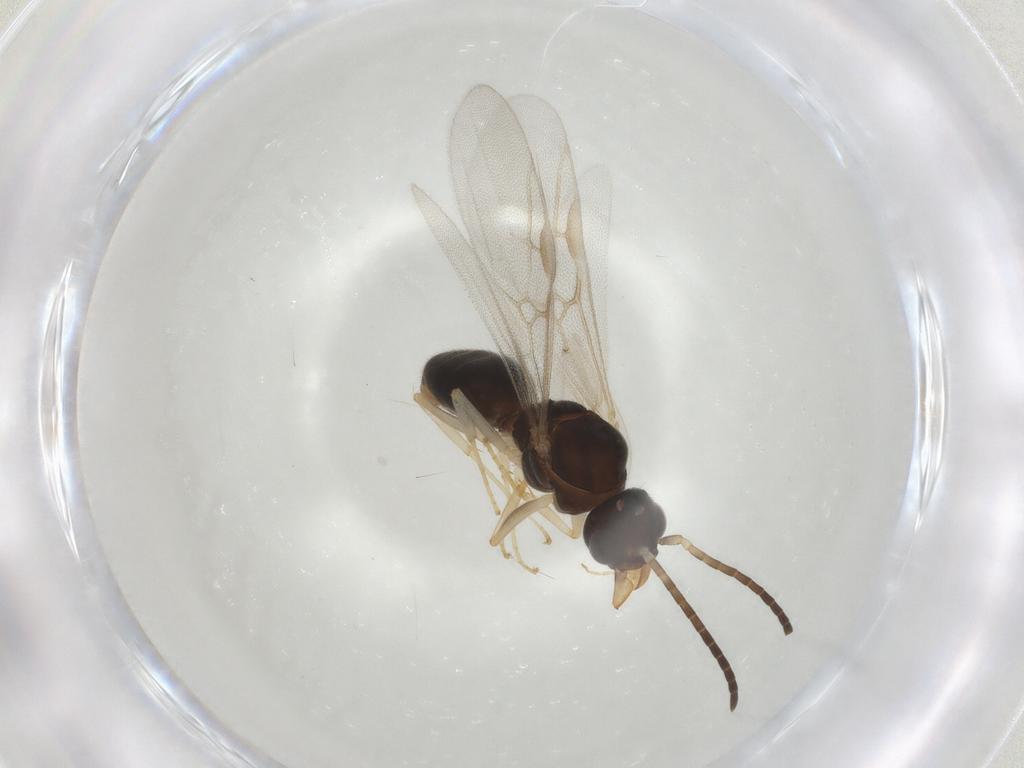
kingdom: Animalia
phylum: Arthropoda
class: Insecta
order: Hymenoptera
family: Formicidae
